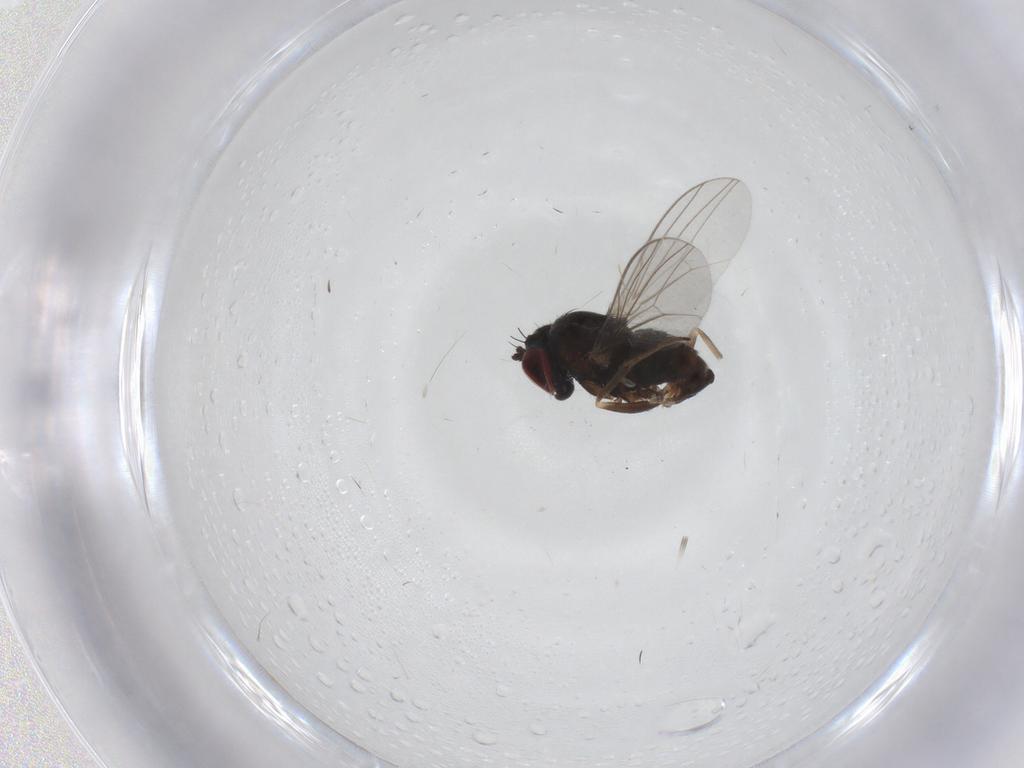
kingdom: Animalia
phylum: Arthropoda
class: Insecta
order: Diptera
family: Dolichopodidae
